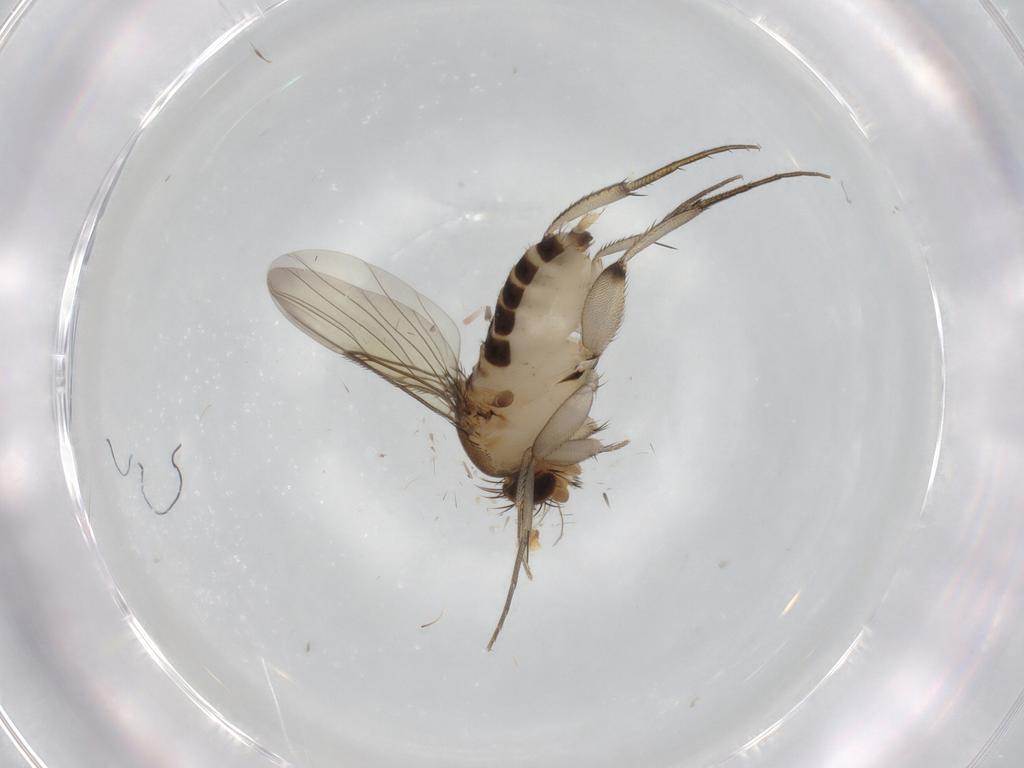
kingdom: Animalia
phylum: Arthropoda
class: Insecta
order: Diptera
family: Phoridae
